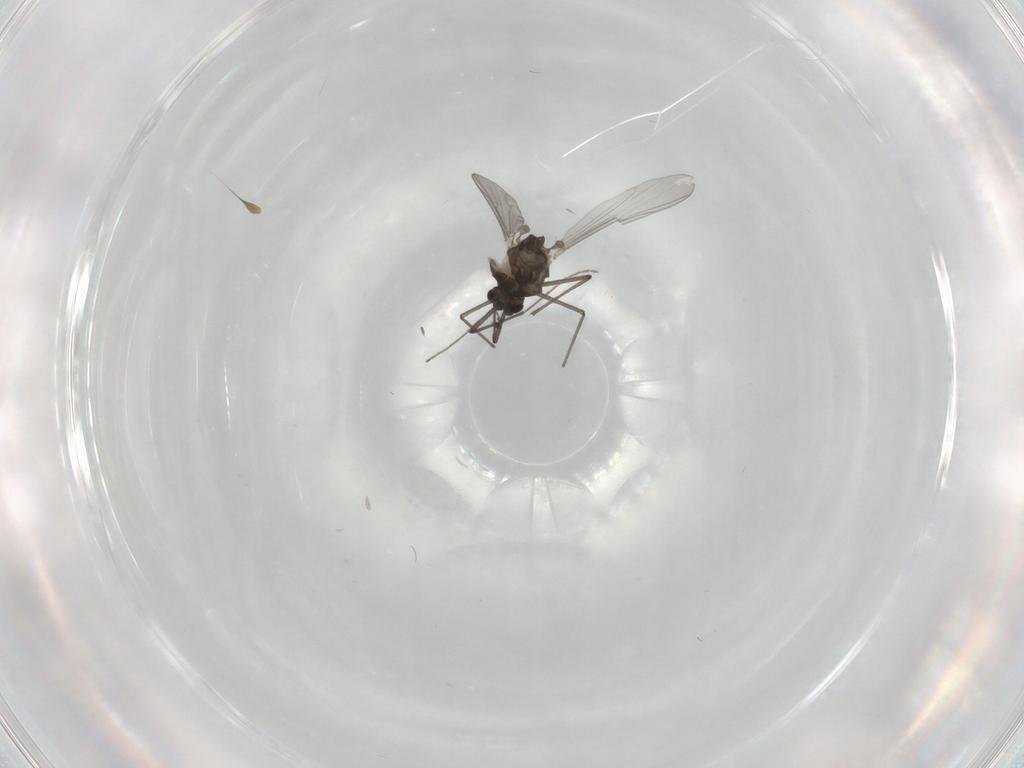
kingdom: Animalia
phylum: Arthropoda
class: Insecta
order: Diptera
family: Chironomidae
